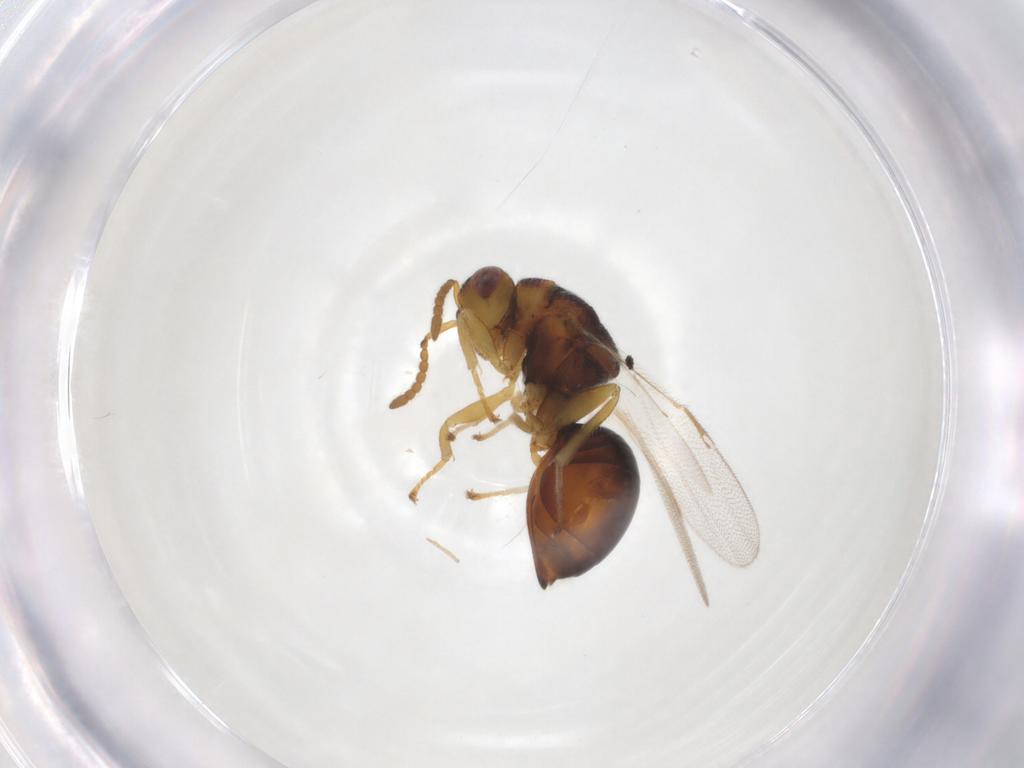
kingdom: Animalia
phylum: Arthropoda
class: Insecta
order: Hymenoptera
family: Eurytomidae
